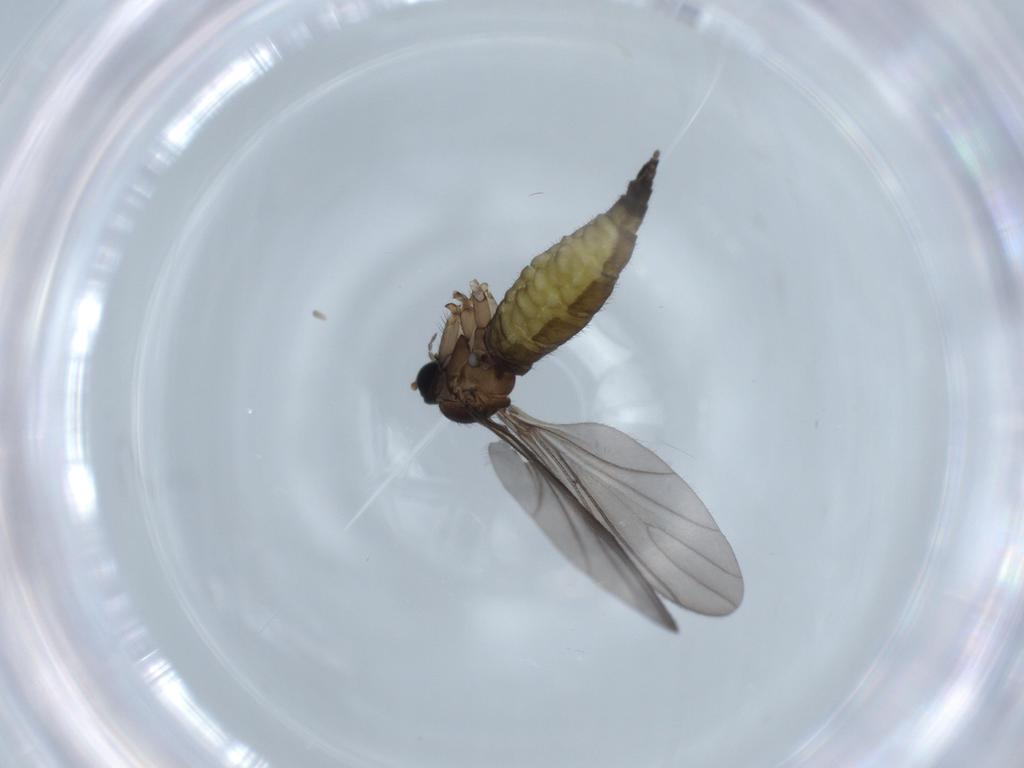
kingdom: Animalia
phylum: Arthropoda
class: Insecta
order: Diptera
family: Sciaridae
